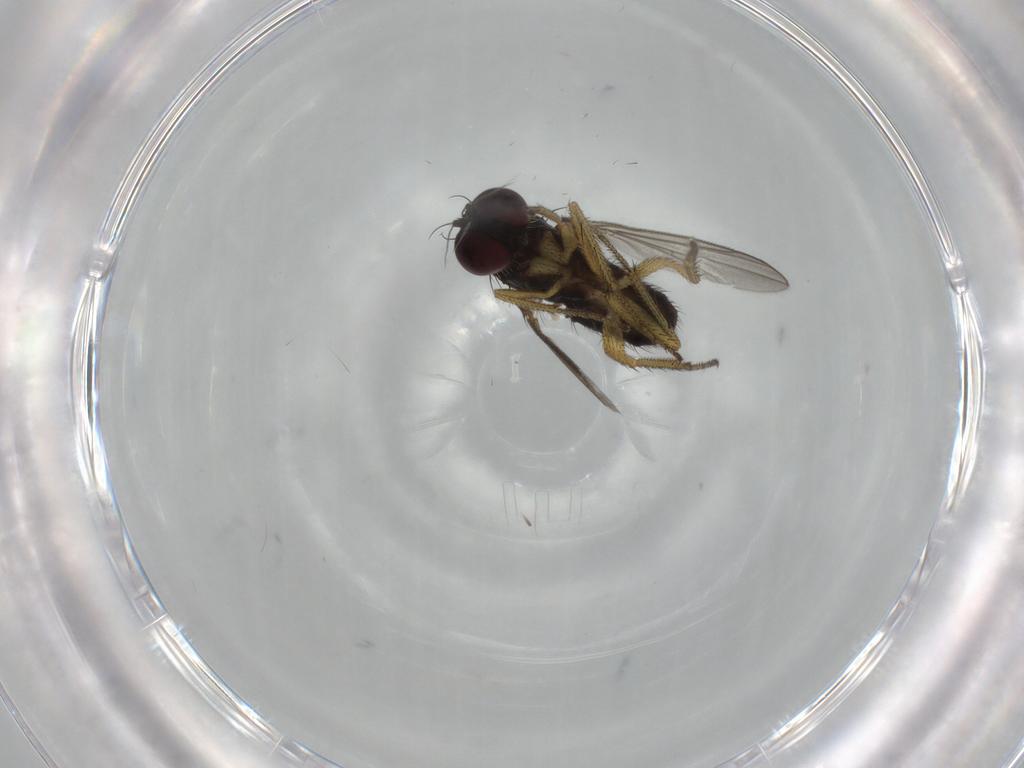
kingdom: Animalia
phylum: Arthropoda
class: Insecta
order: Diptera
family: Dolichopodidae
